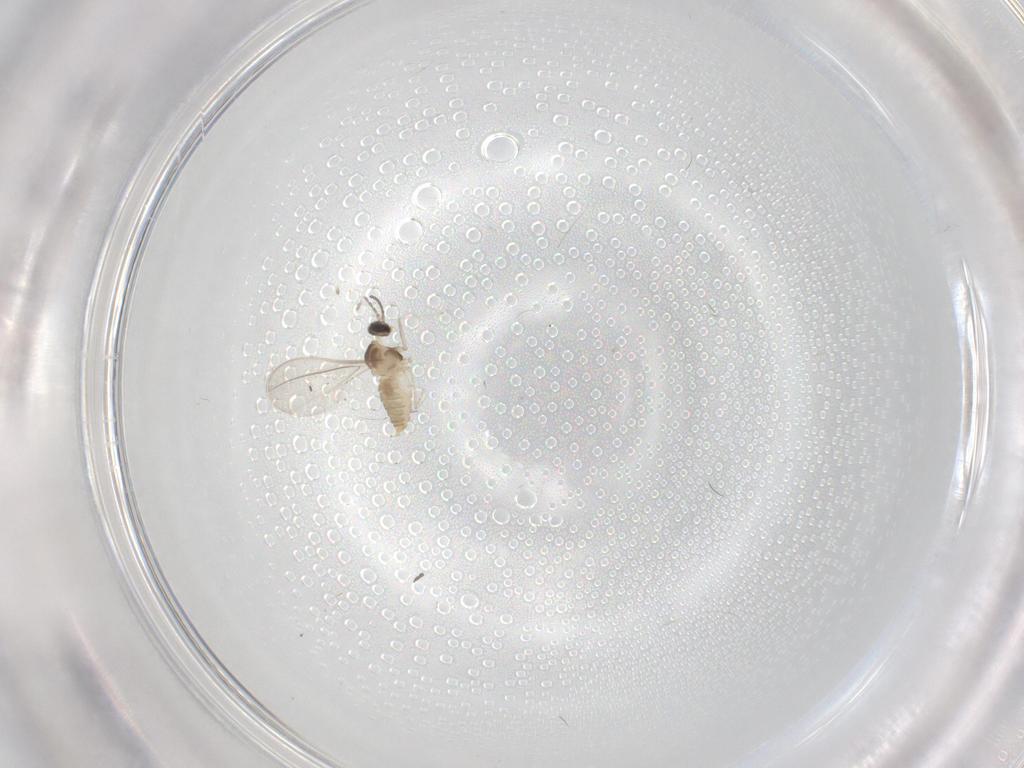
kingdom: Animalia
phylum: Arthropoda
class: Insecta
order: Diptera
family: Cecidomyiidae
